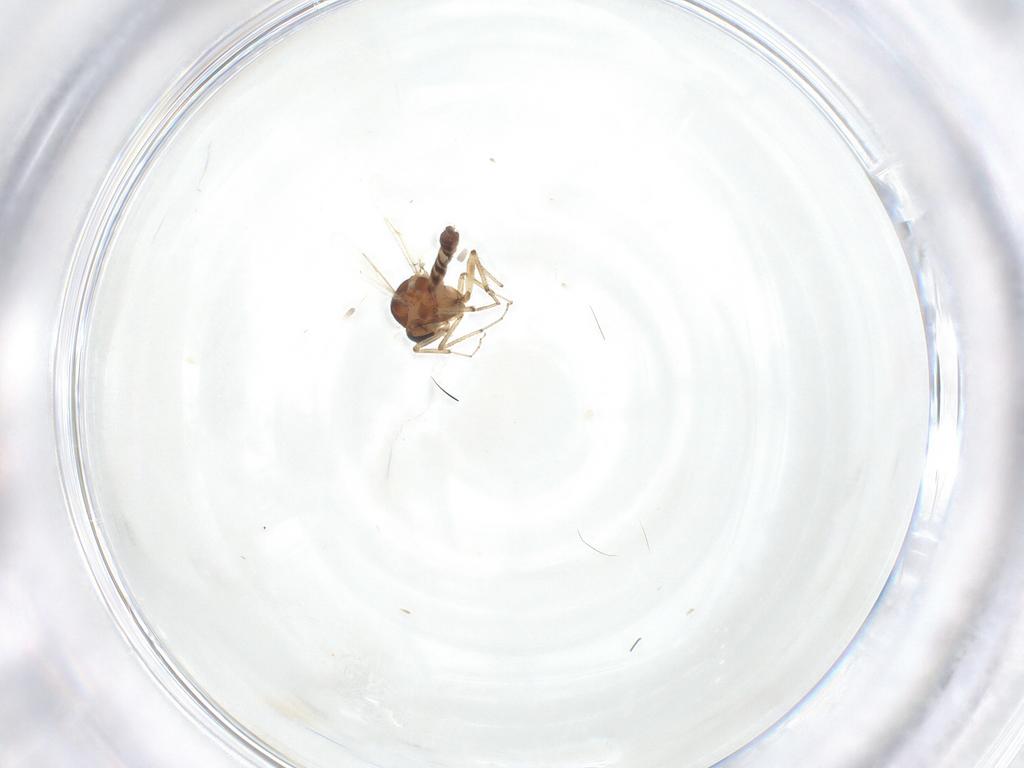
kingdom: Animalia
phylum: Arthropoda
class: Insecta
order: Diptera
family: Ceratopogonidae
